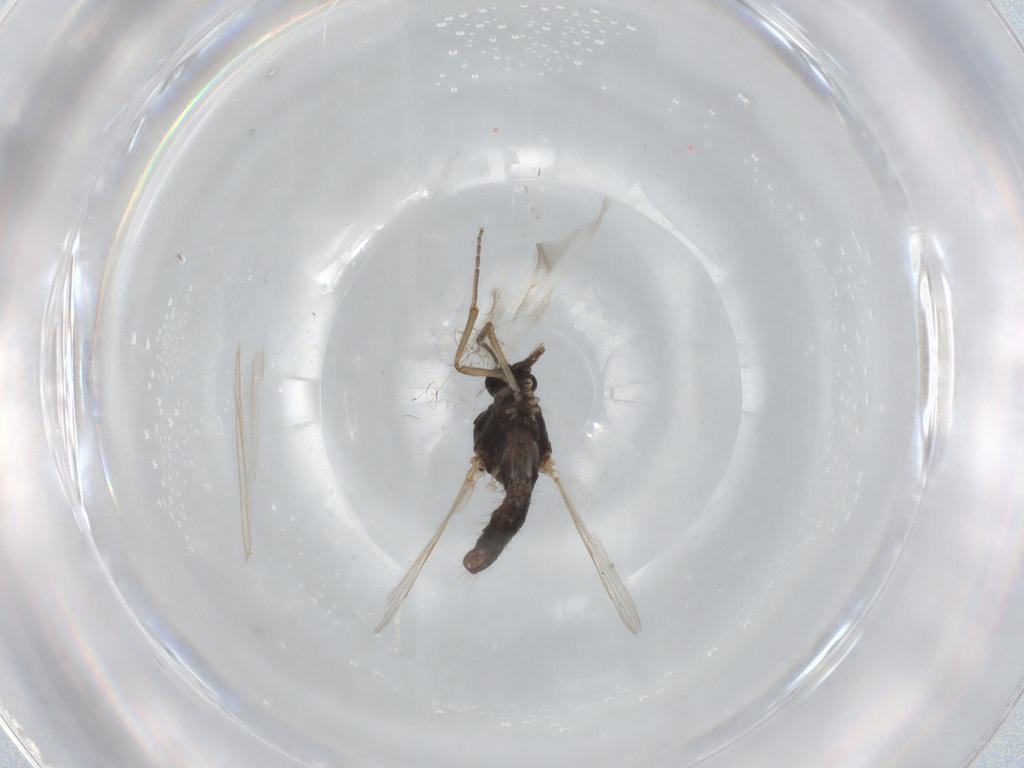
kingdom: Animalia
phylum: Arthropoda
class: Insecta
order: Diptera
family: Ceratopogonidae
